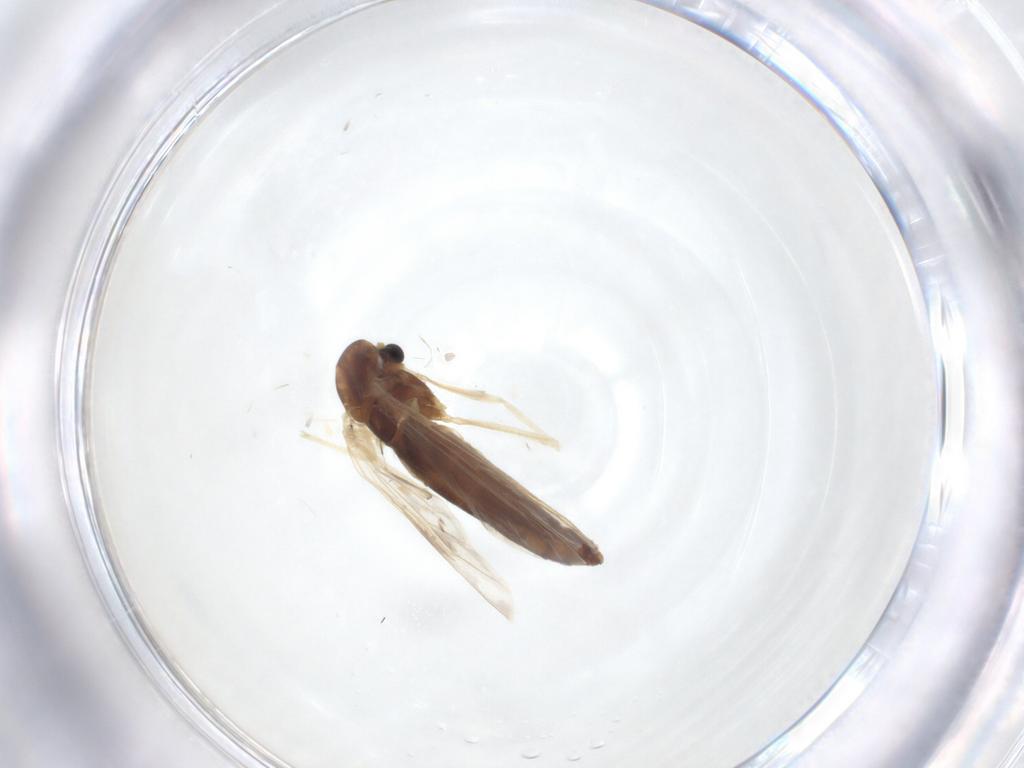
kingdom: Animalia
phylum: Arthropoda
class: Insecta
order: Diptera
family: Chironomidae
